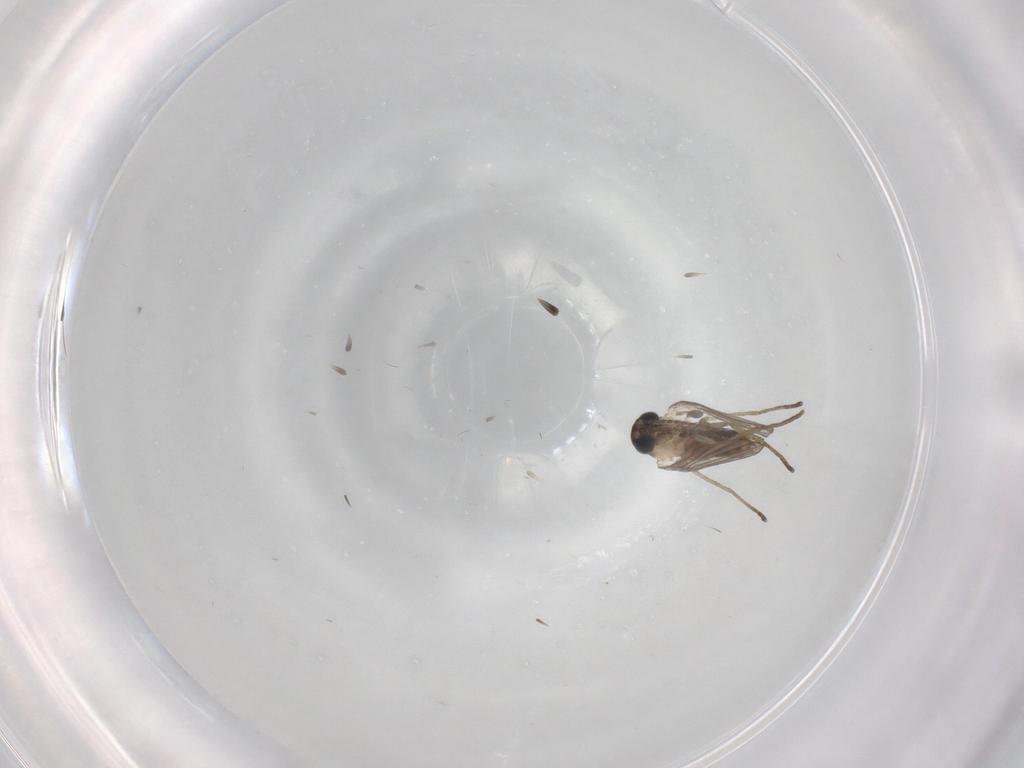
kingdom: Animalia
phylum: Arthropoda
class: Insecta
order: Diptera
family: Psychodidae
